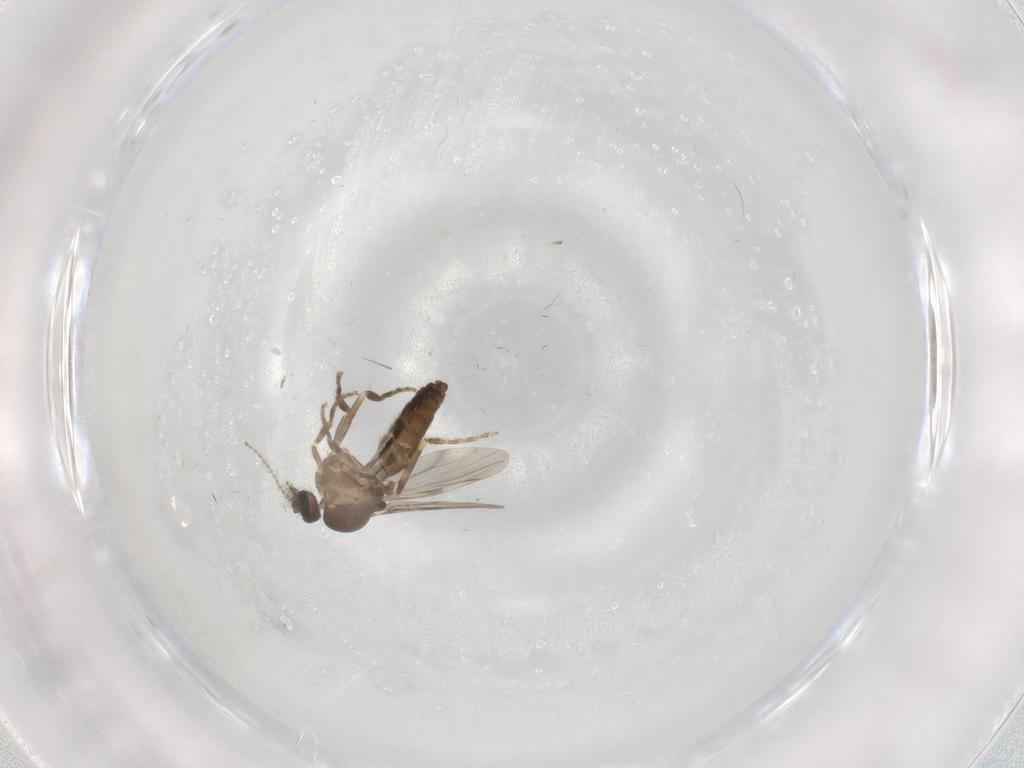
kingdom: Animalia
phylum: Arthropoda
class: Insecta
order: Diptera
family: Ceratopogonidae
